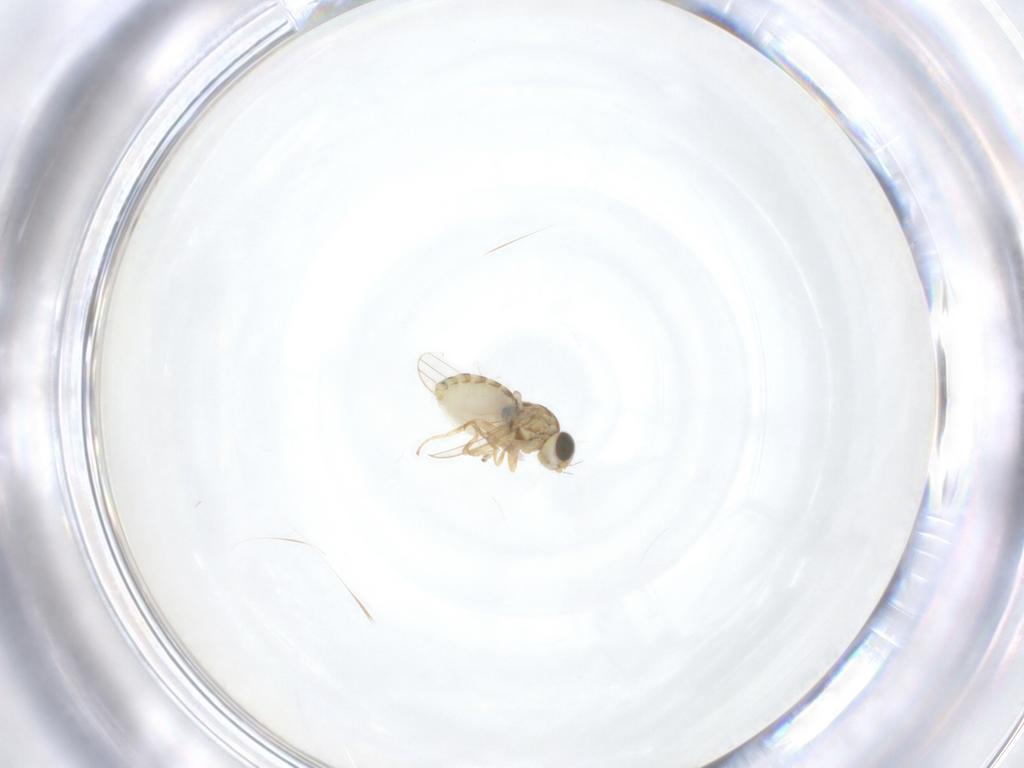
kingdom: Animalia
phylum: Arthropoda
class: Insecta
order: Diptera
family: Chyromyidae
